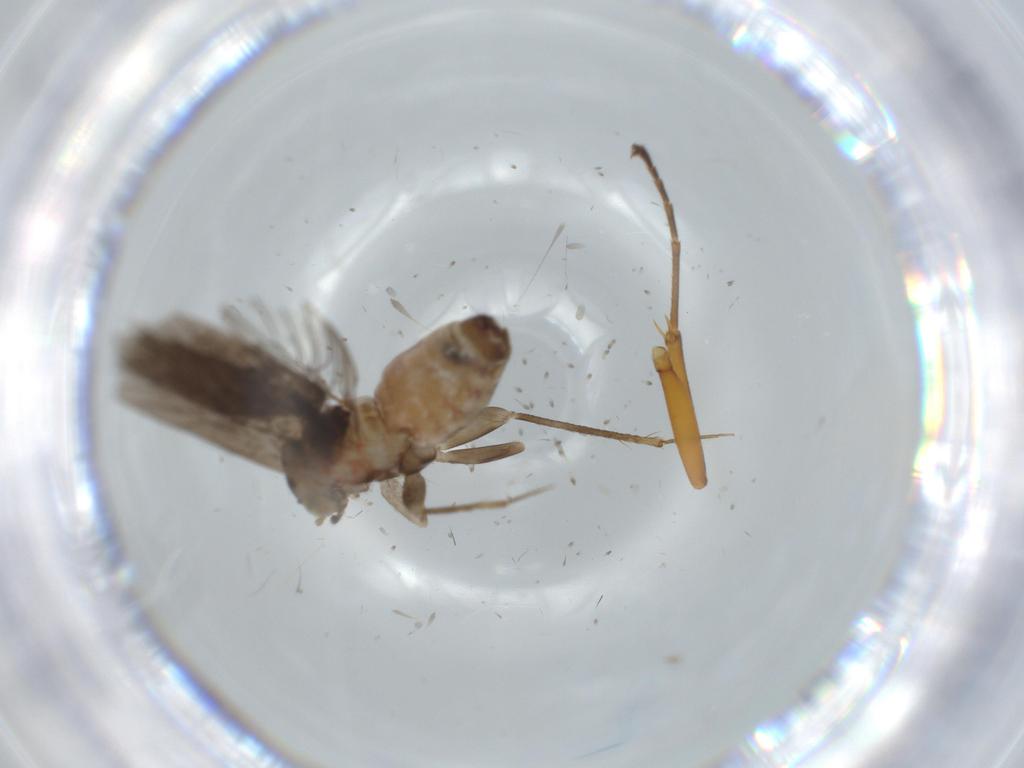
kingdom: Animalia
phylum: Arthropoda
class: Insecta
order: Psocodea
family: Lepidopsocidae
